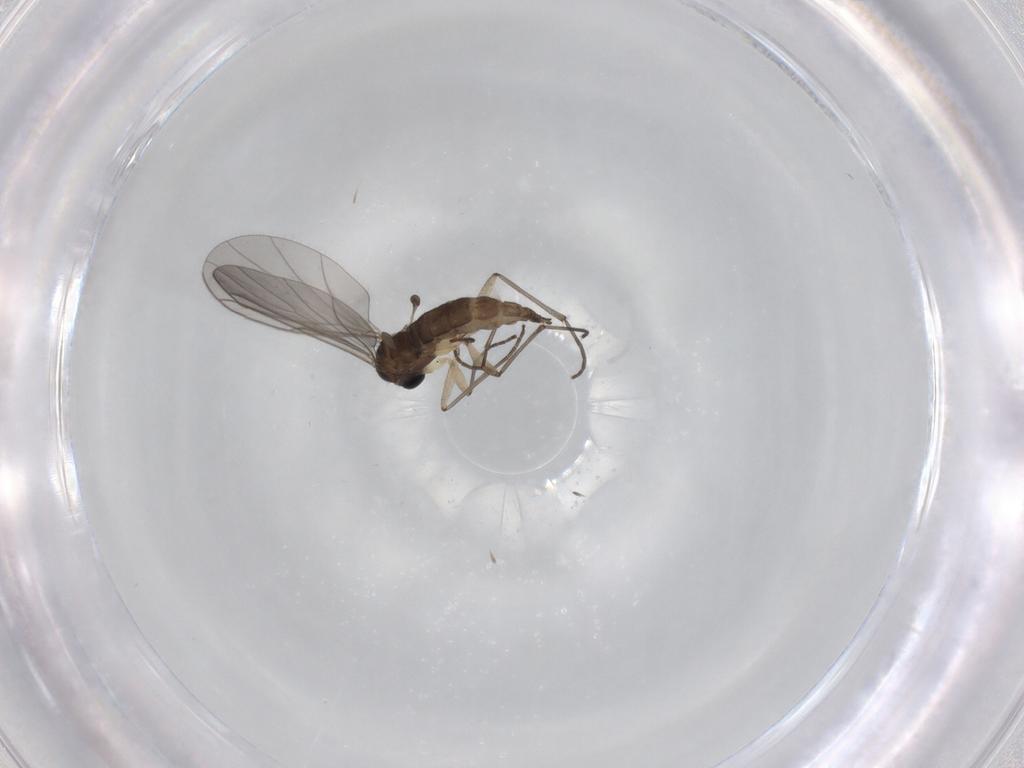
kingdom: Animalia
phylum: Arthropoda
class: Insecta
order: Diptera
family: Sciaridae
